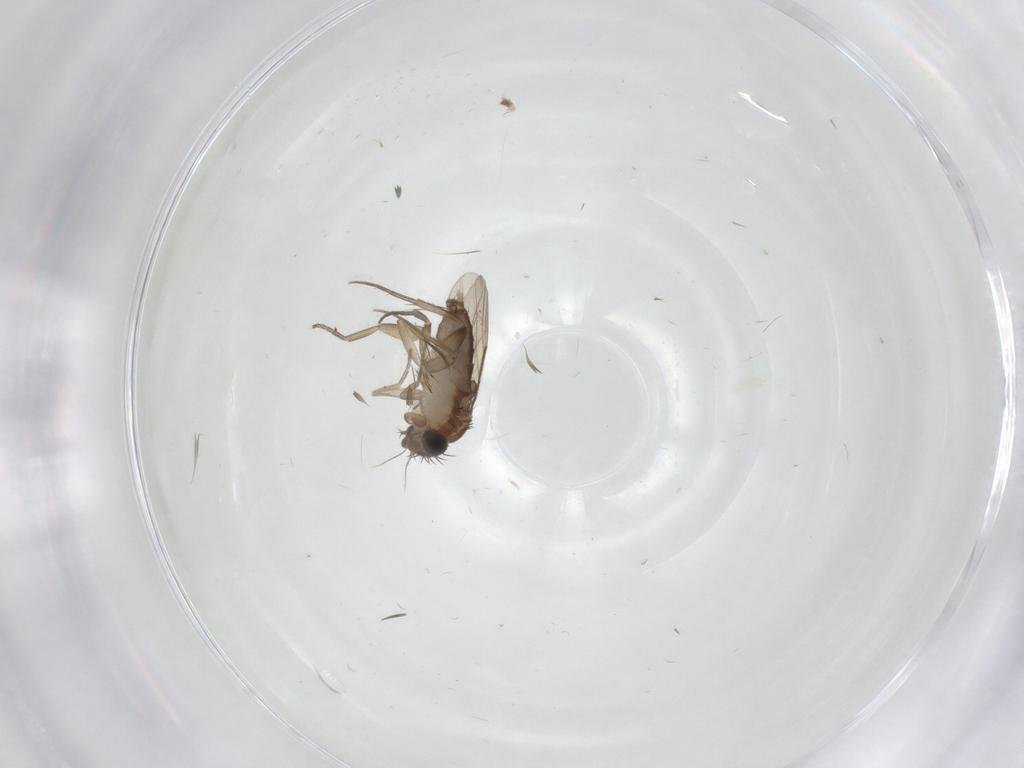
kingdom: Animalia
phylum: Arthropoda
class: Insecta
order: Diptera
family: Phoridae
